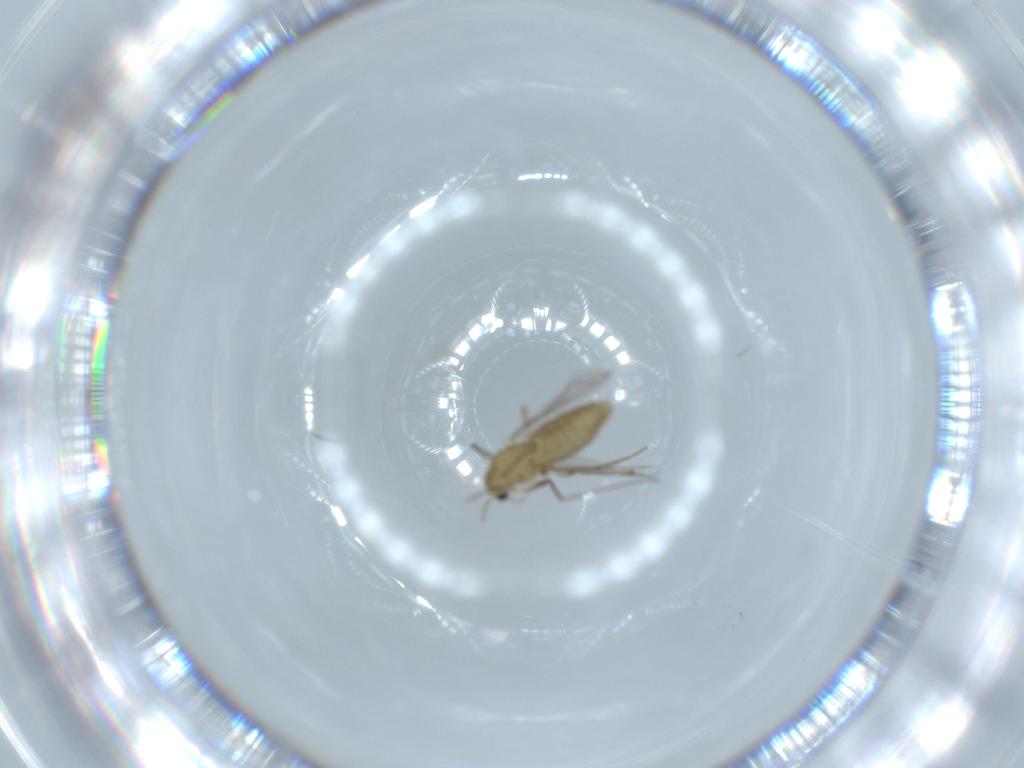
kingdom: Animalia
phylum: Arthropoda
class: Insecta
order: Diptera
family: Chironomidae
